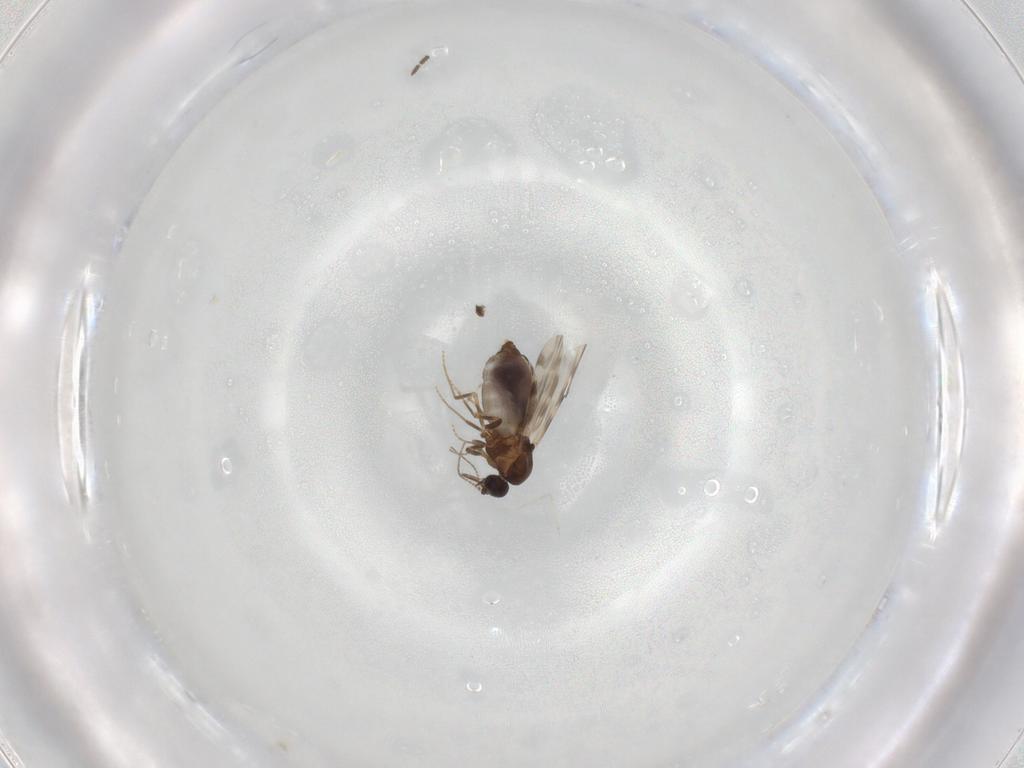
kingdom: Animalia
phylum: Arthropoda
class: Insecta
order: Diptera
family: Ceratopogonidae
